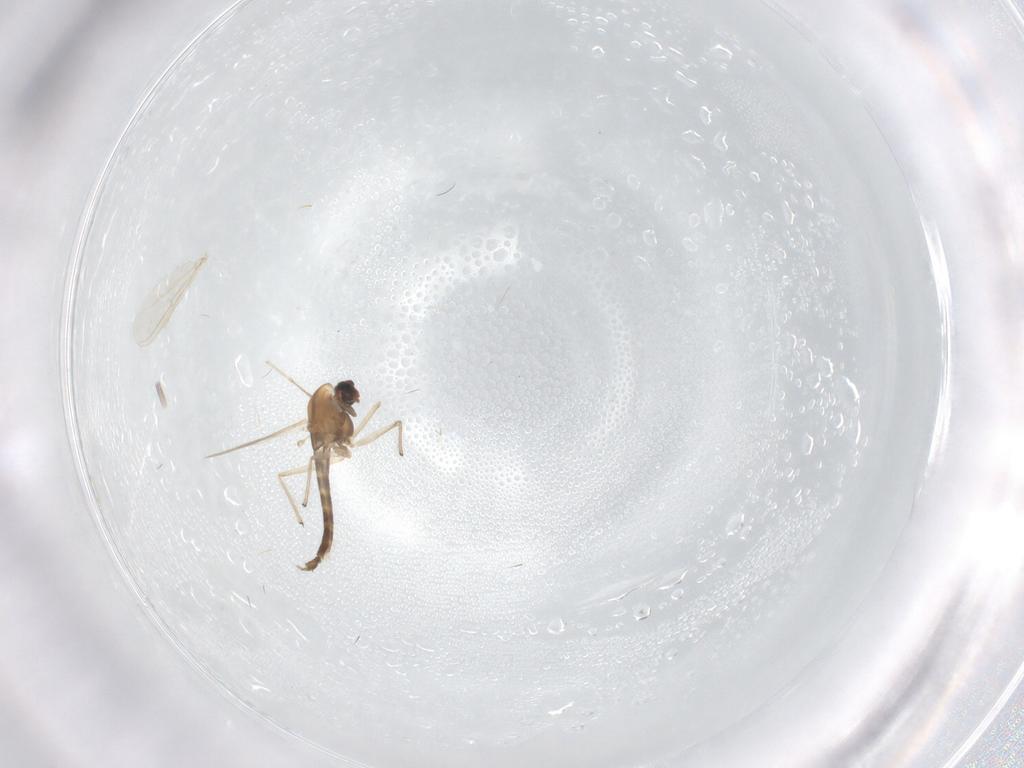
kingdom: Animalia
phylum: Arthropoda
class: Insecta
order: Diptera
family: Chironomidae
